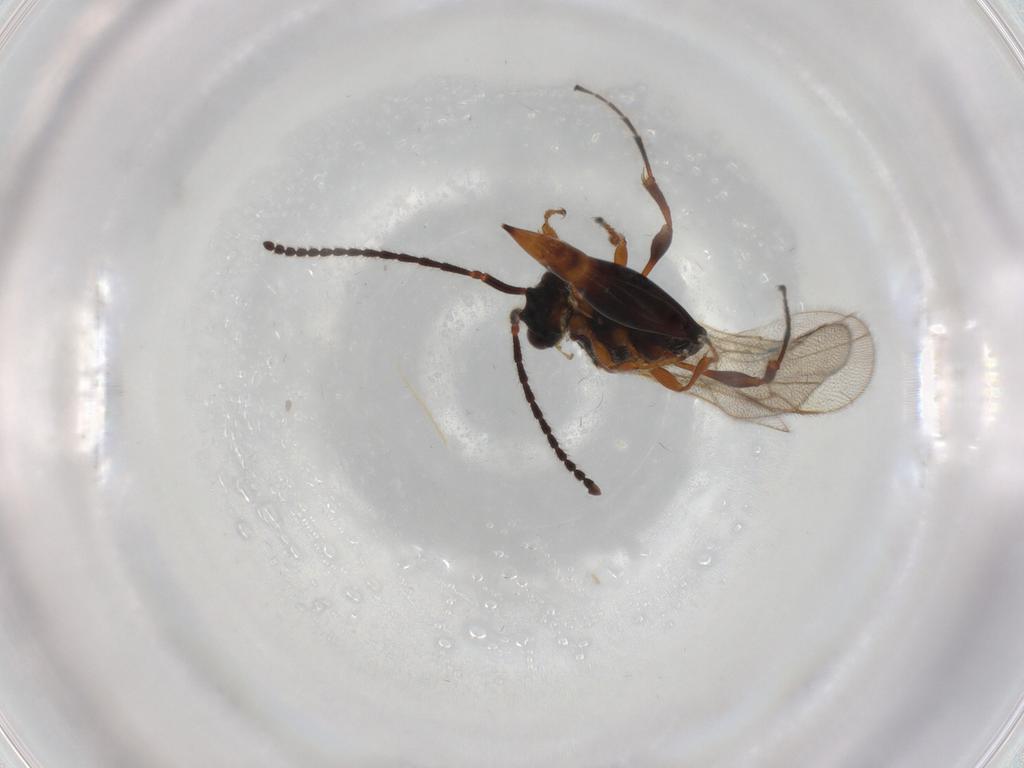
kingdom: Animalia
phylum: Arthropoda
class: Insecta
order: Hymenoptera
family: Diapriidae
